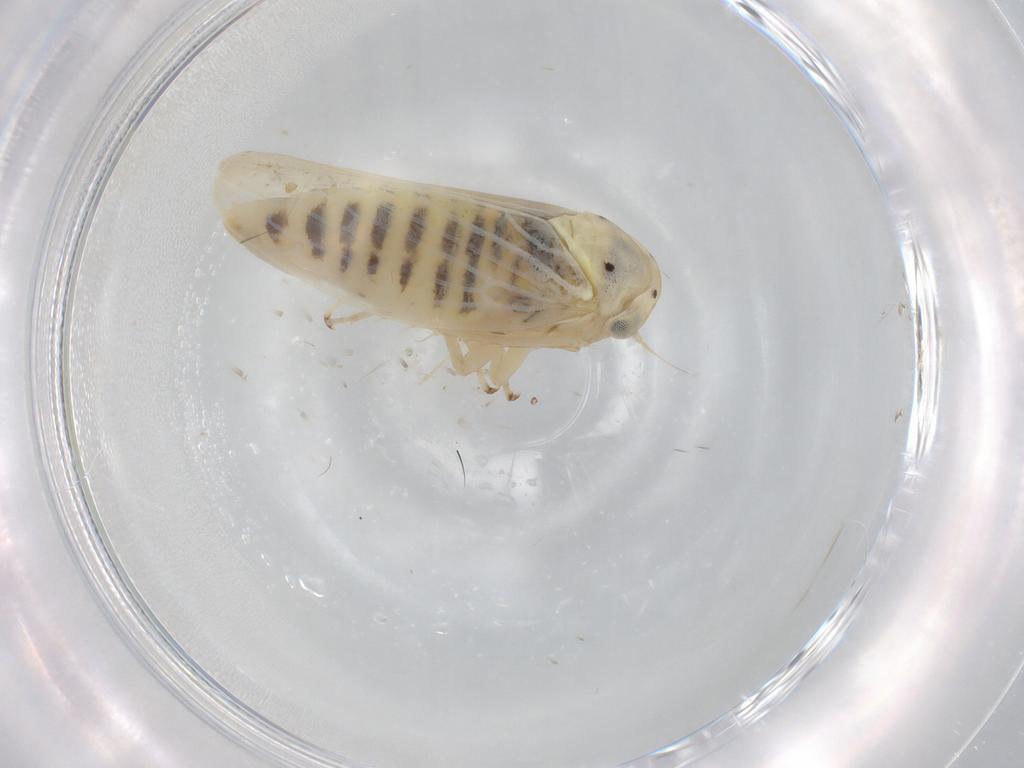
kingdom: Animalia
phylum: Arthropoda
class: Insecta
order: Hemiptera
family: Cicadellidae
